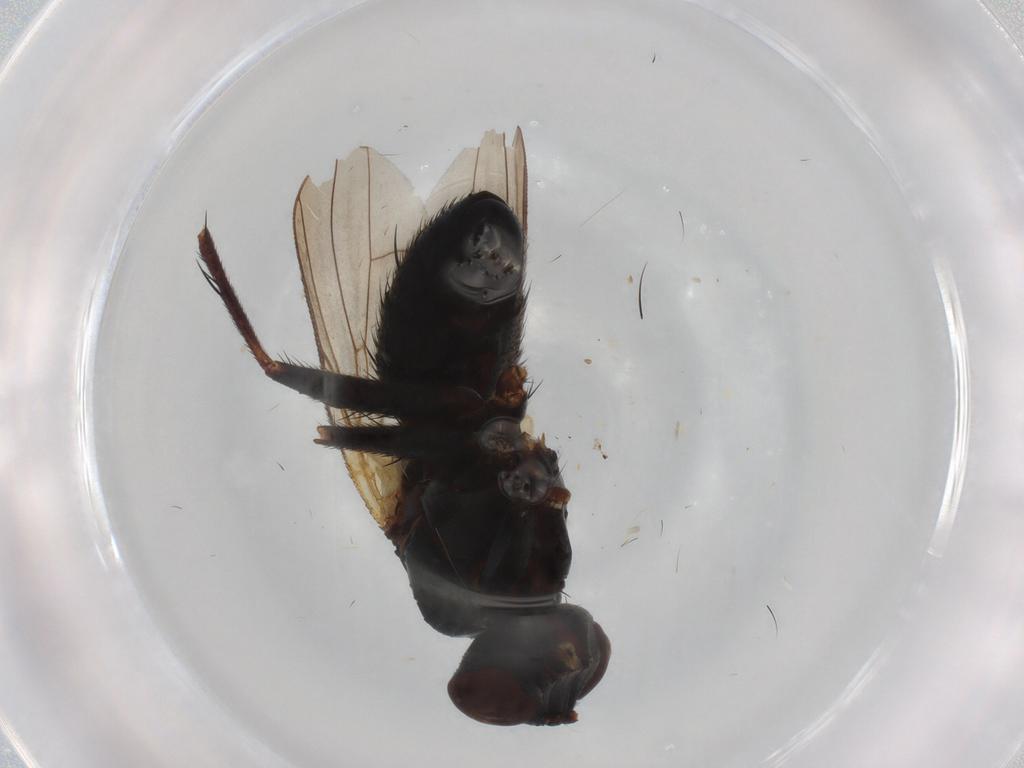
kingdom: Animalia
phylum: Arthropoda
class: Insecta
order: Diptera
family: Muscidae
